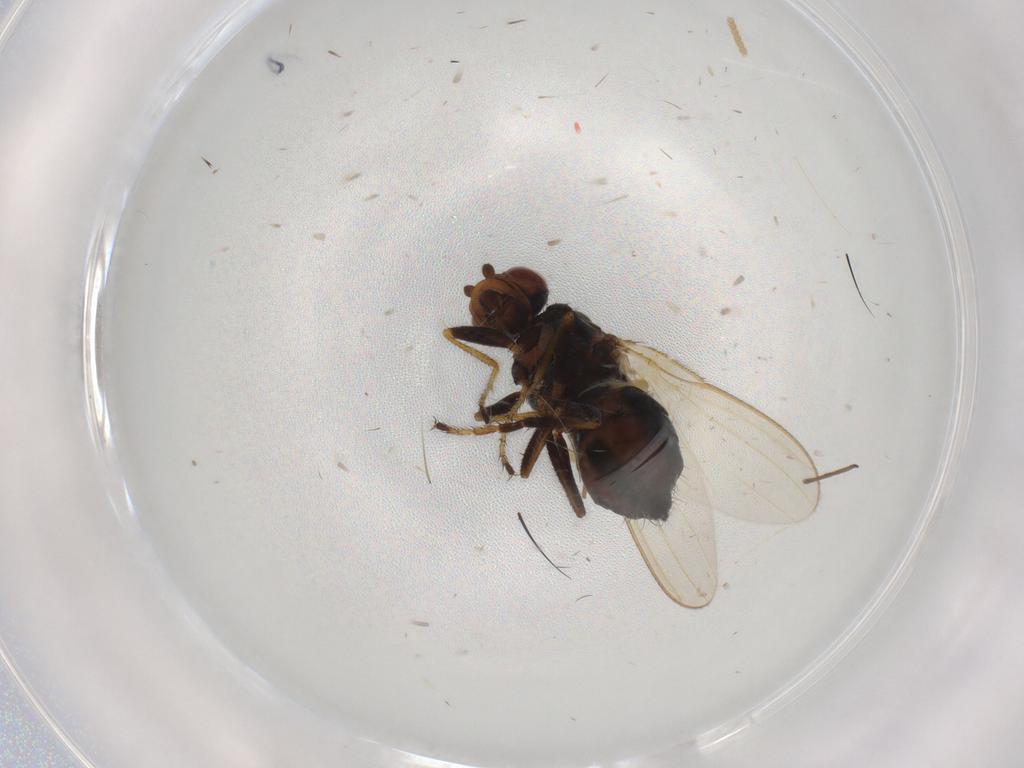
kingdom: Animalia
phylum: Arthropoda
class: Insecta
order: Diptera
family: Sphaeroceridae
